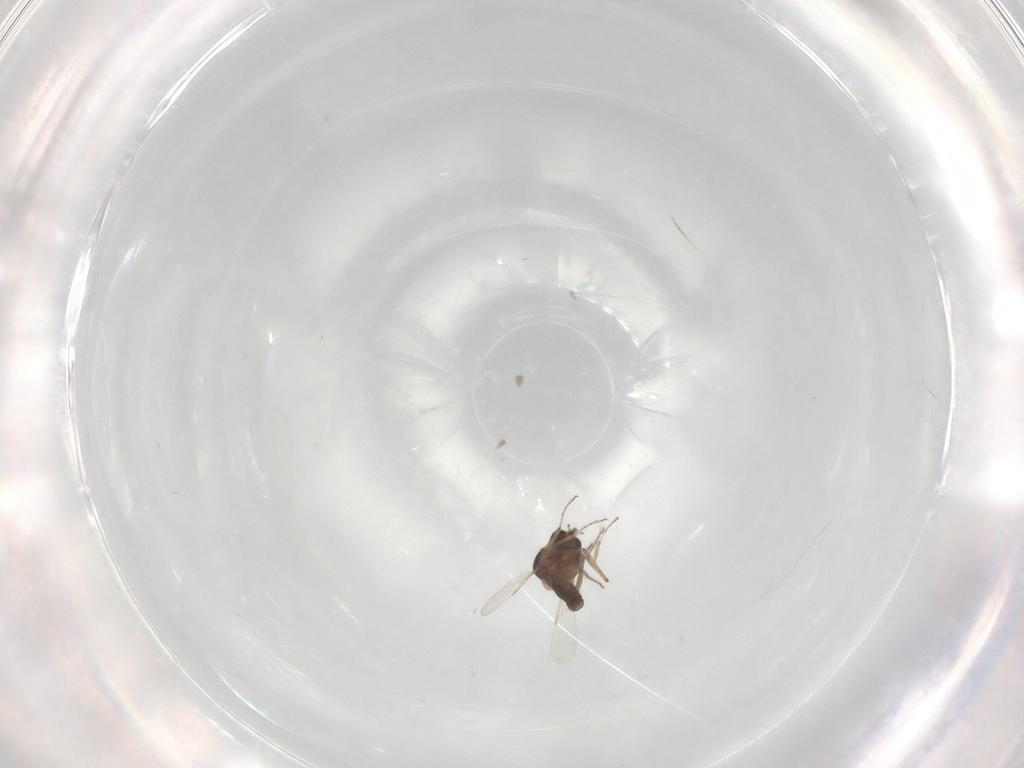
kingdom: Animalia
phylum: Arthropoda
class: Insecta
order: Diptera
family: Ceratopogonidae
